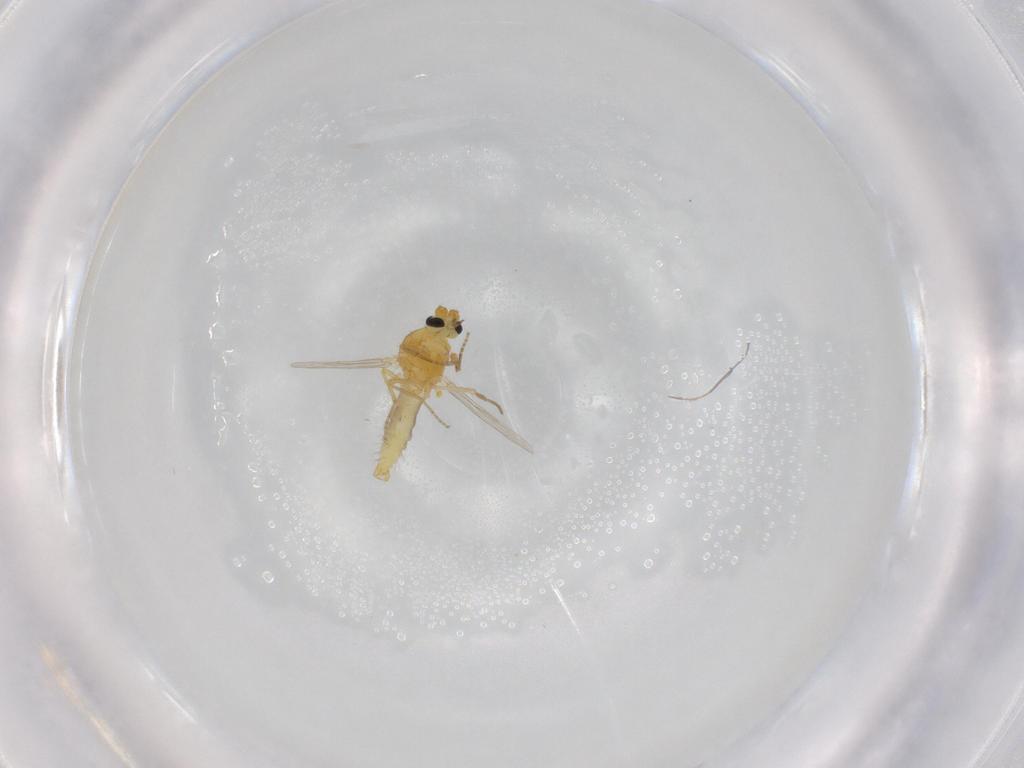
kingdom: Animalia
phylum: Arthropoda
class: Insecta
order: Diptera
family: Ceratopogonidae
